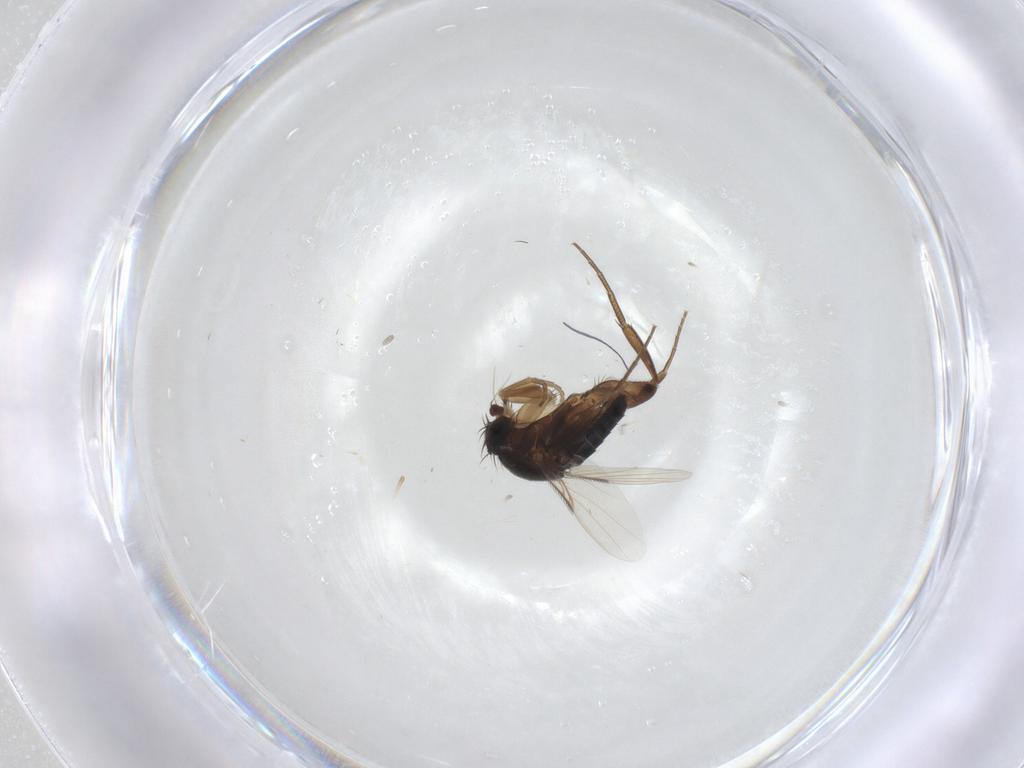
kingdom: Animalia
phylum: Arthropoda
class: Insecta
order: Diptera
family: Phoridae
